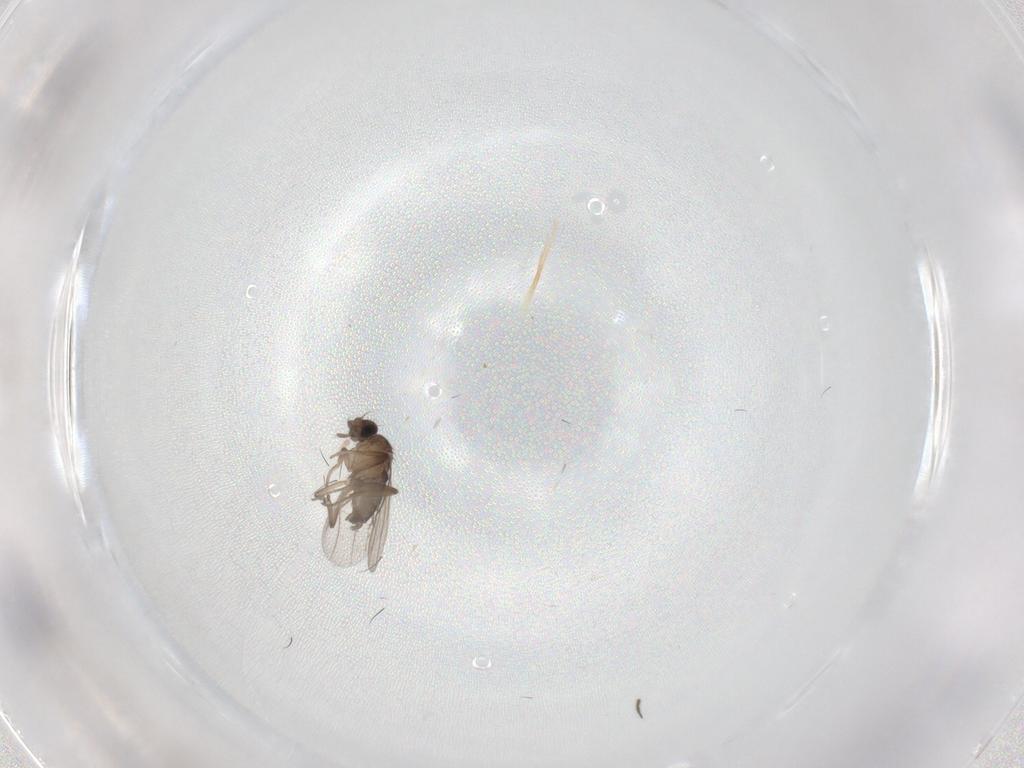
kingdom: Animalia
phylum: Arthropoda
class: Insecta
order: Diptera
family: Sciaridae
